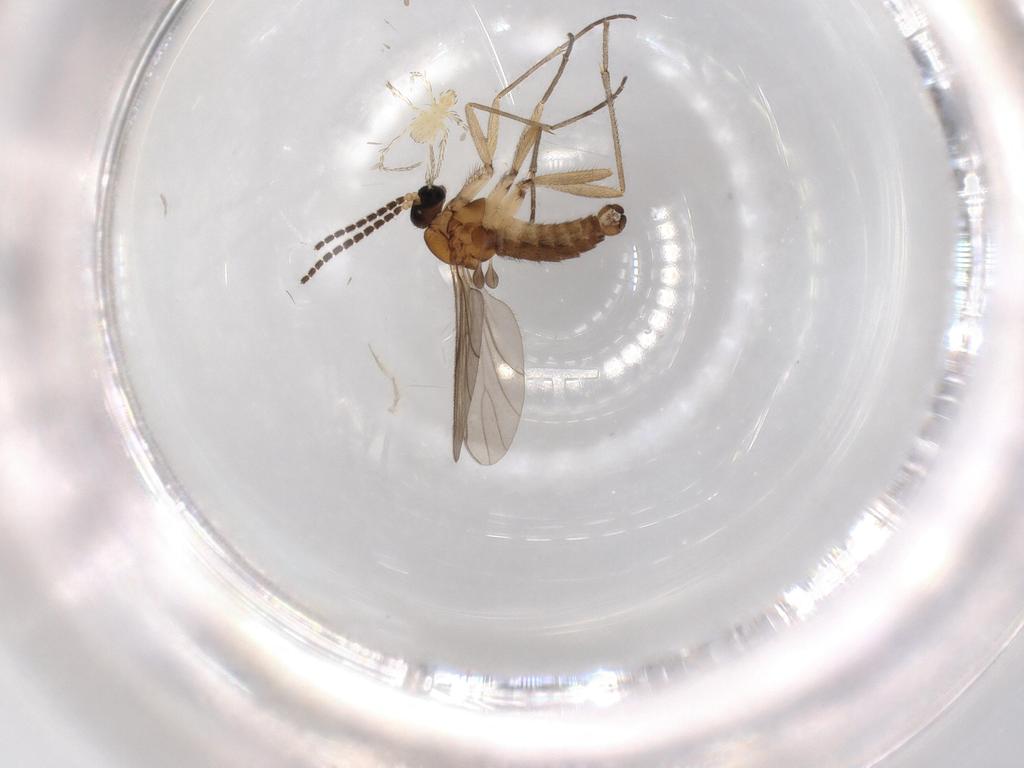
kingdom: Animalia
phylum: Arthropoda
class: Insecta
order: Diptera
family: Sciaridae
